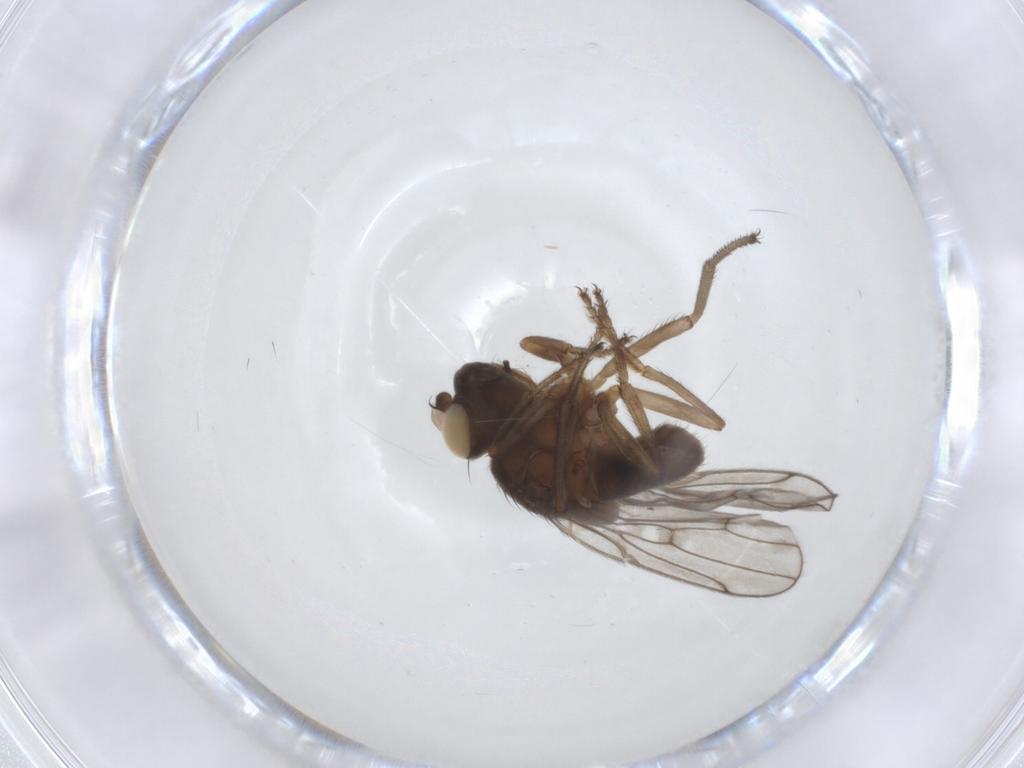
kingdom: Animalia
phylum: Arthropoda
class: Insecta
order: Diptera
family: Ephydridae
